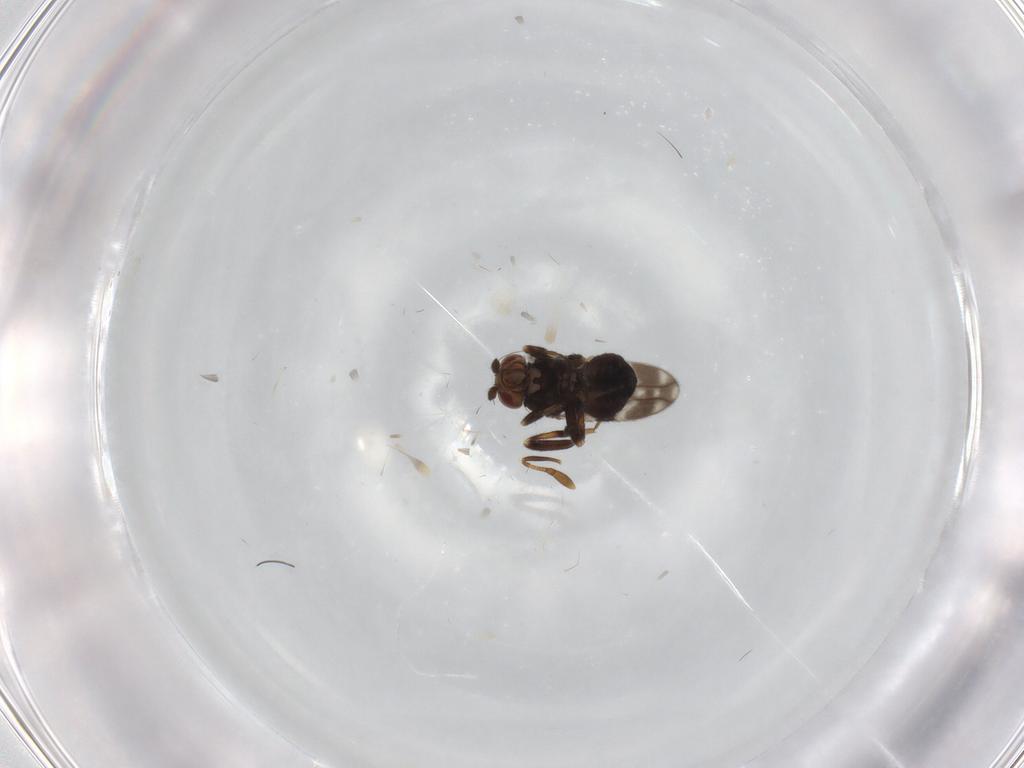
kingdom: Animalia
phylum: Arthropoda
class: Insecta
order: Diptera
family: Sphaeroceridae
